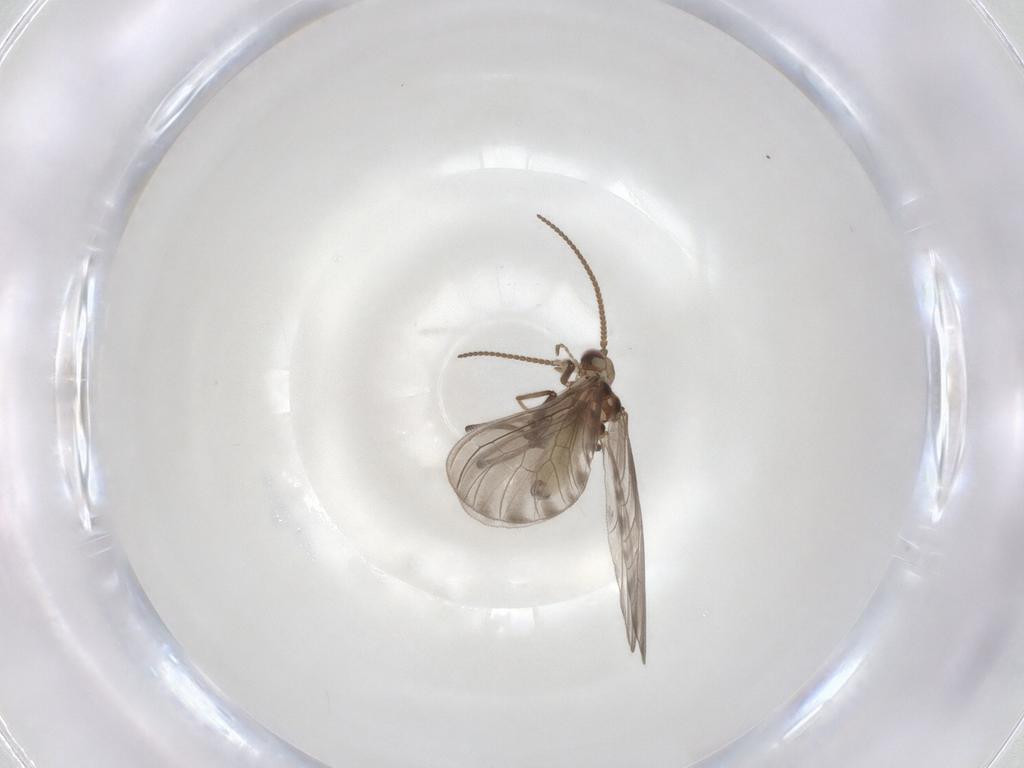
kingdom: Animalia
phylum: Arthropoda
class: Insecta
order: Neuroptera
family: Coniopterygidae
